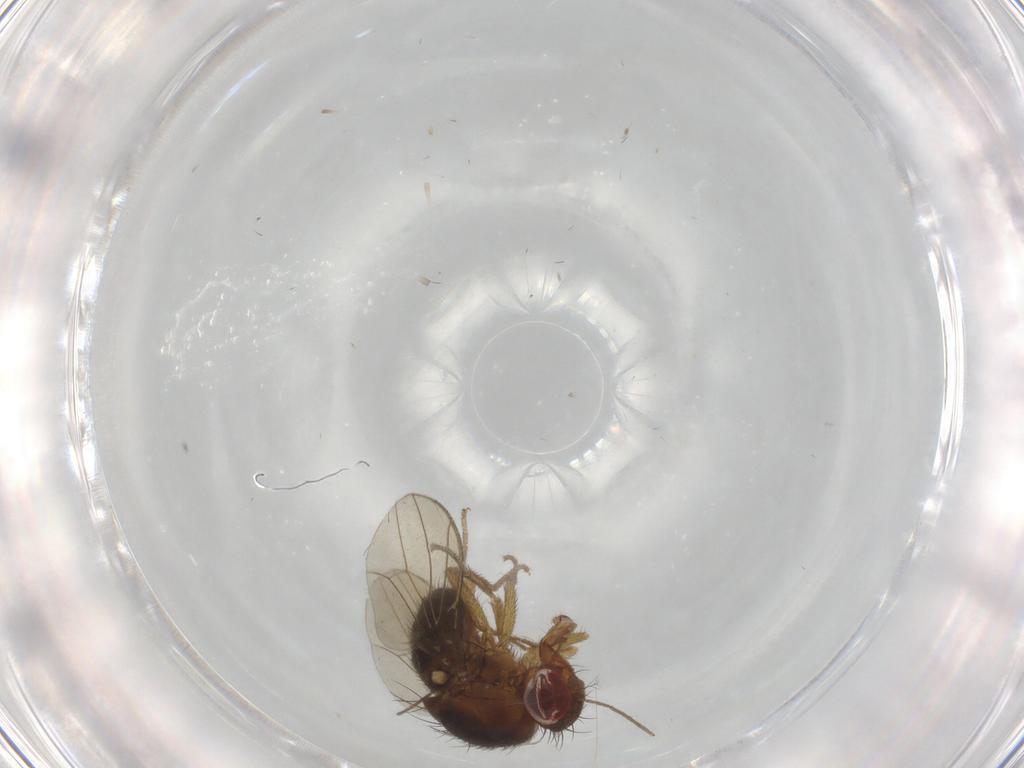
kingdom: Animalia
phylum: Arthropoda
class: Insecta
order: Diptera
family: Drosophilidae
